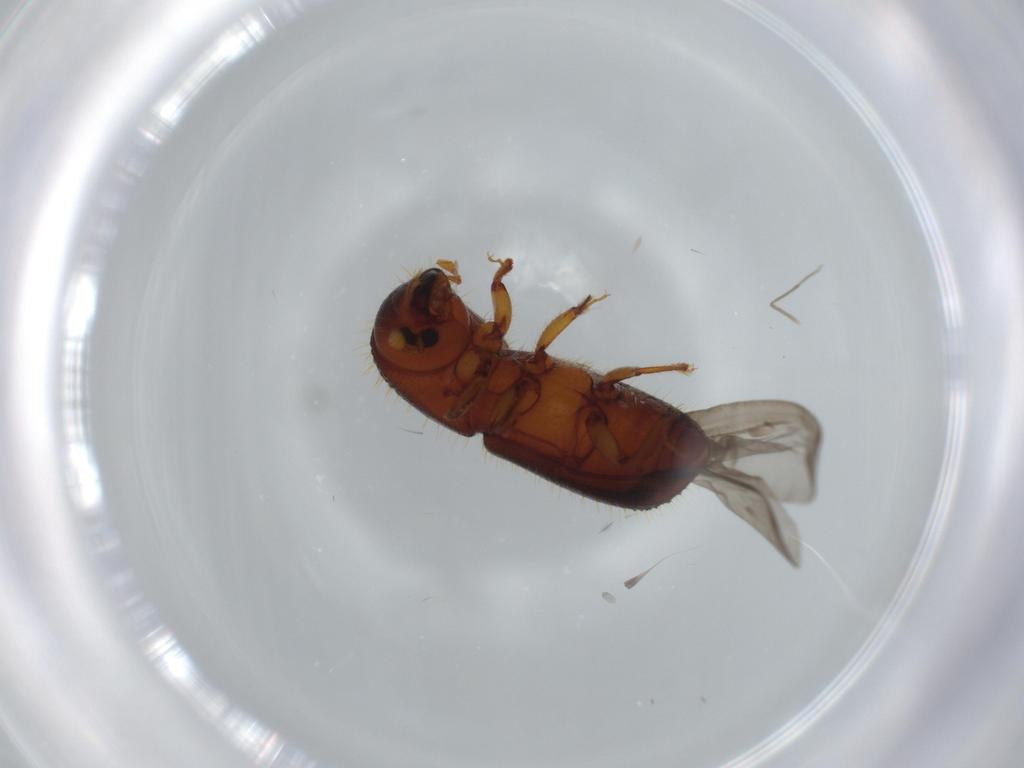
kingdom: Animalia
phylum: Arthropoda
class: Insecta
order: Coleoptera
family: Curculionidae
